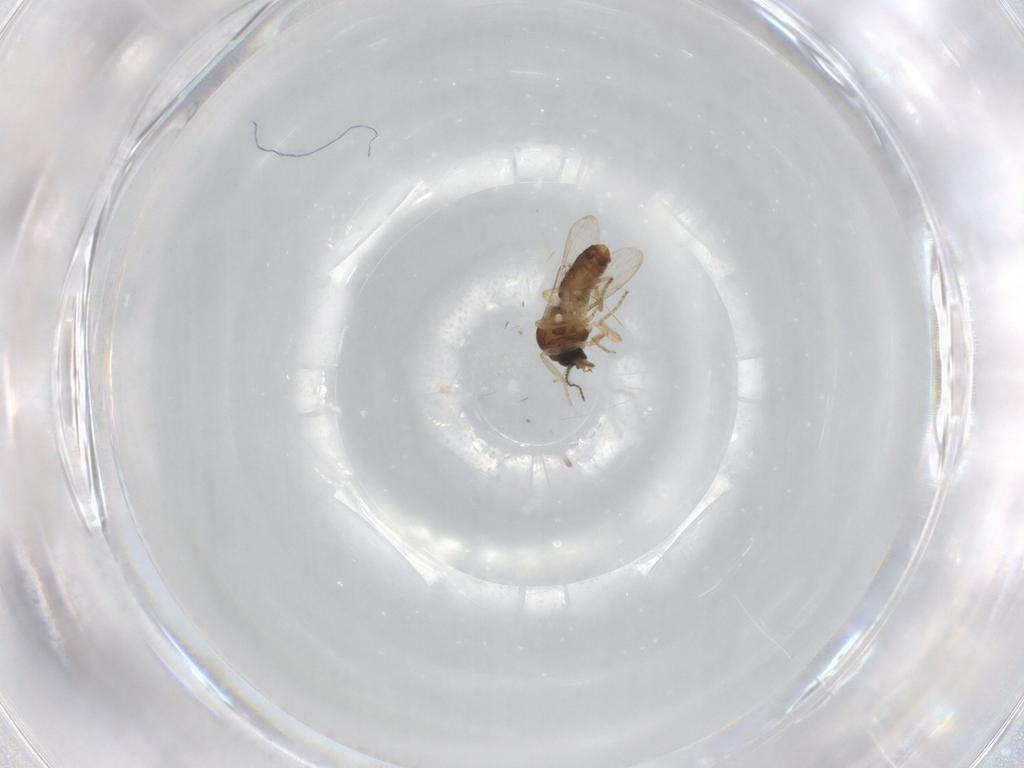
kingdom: Animalia
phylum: Arthropoda
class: Insecta
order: Diptera
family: Ceratopogonidae
